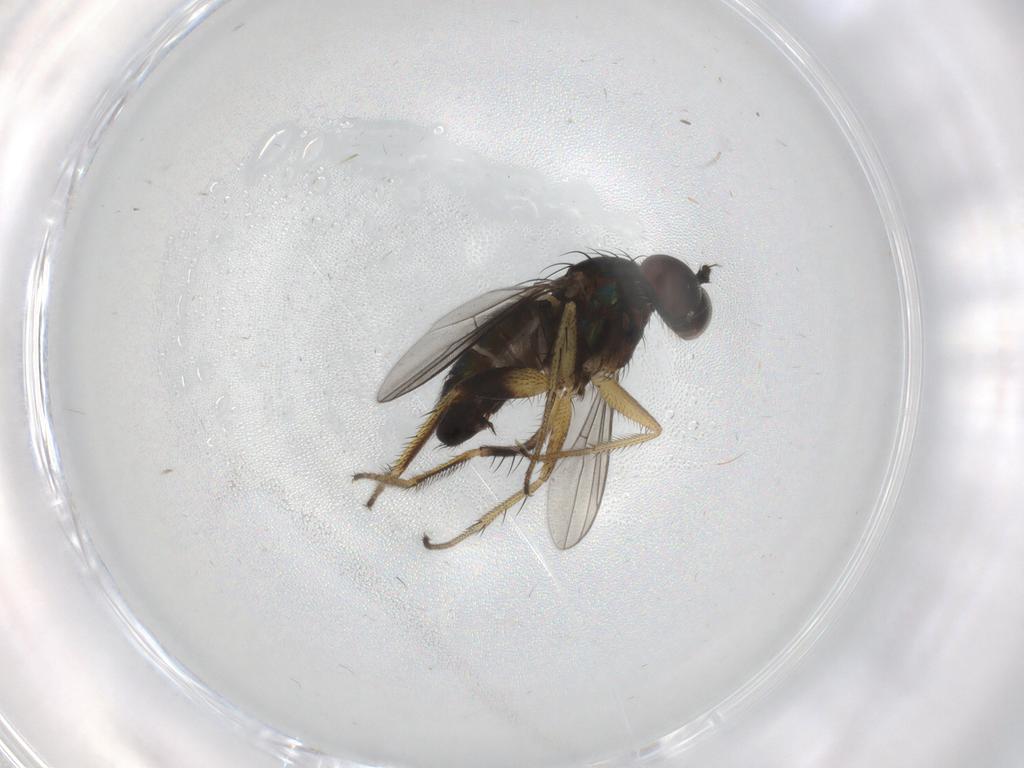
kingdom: Animalia
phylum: Arthropoda
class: Insecta
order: Diptera
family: Dolichopodidae
